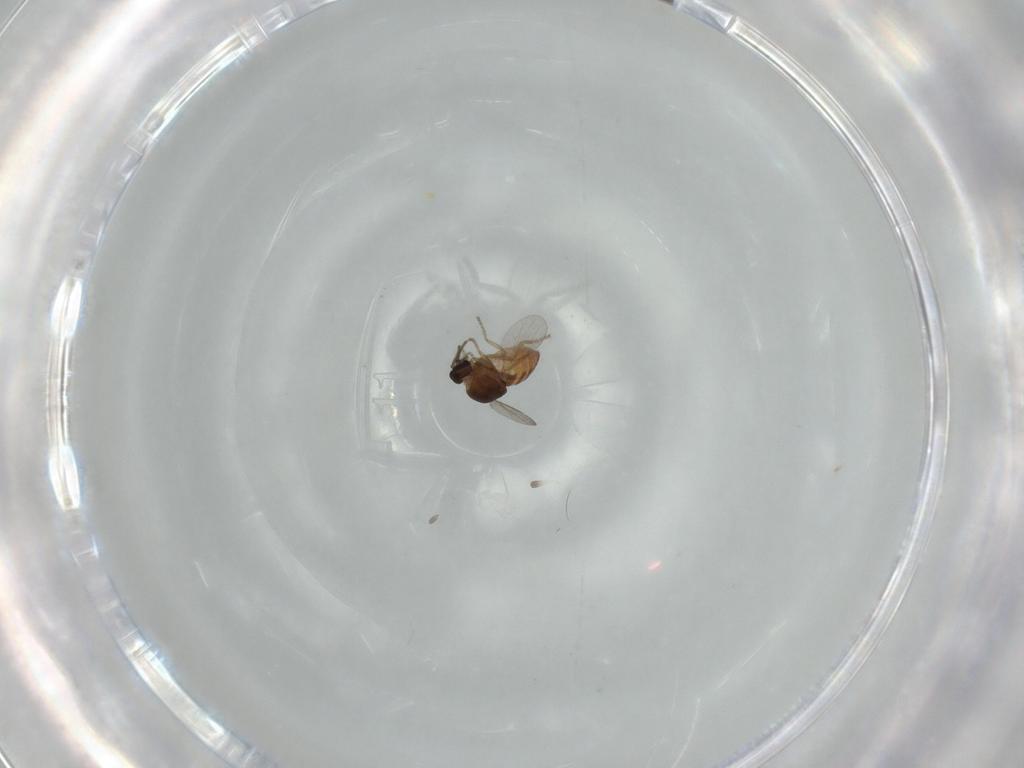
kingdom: Animalia
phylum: Arthropoda
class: Insecta
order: Diptera
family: Ceratopogonidae
